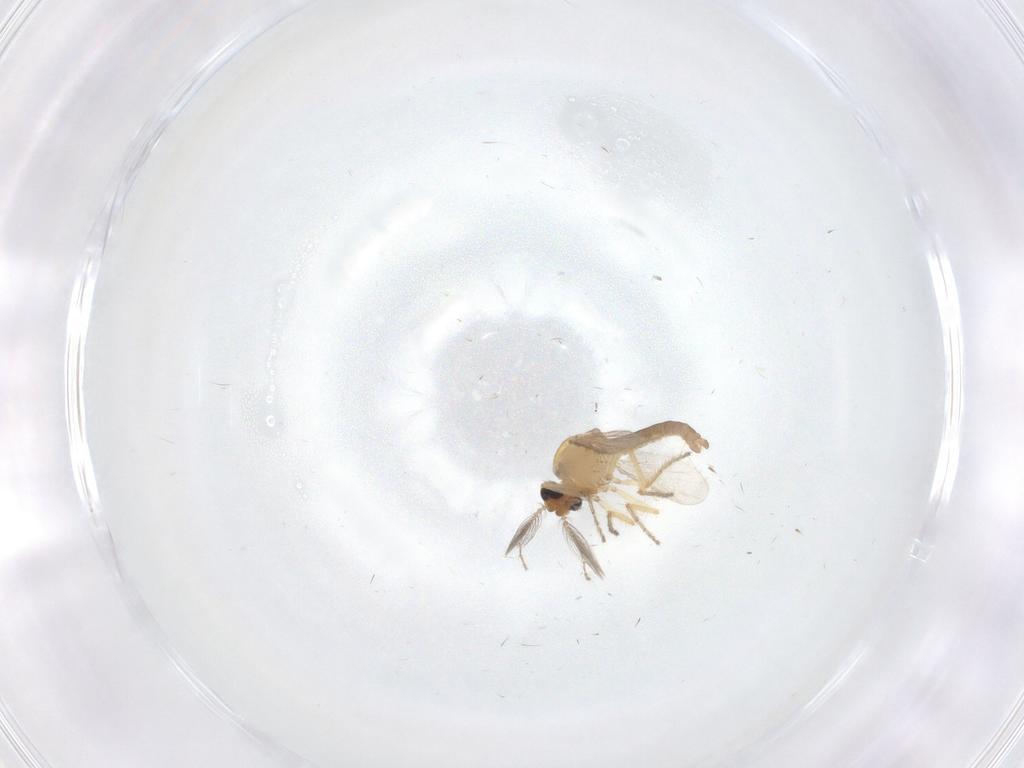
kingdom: Animalia
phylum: Arthropoda
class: Insecta
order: Diptera
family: Ceratopogonidae
